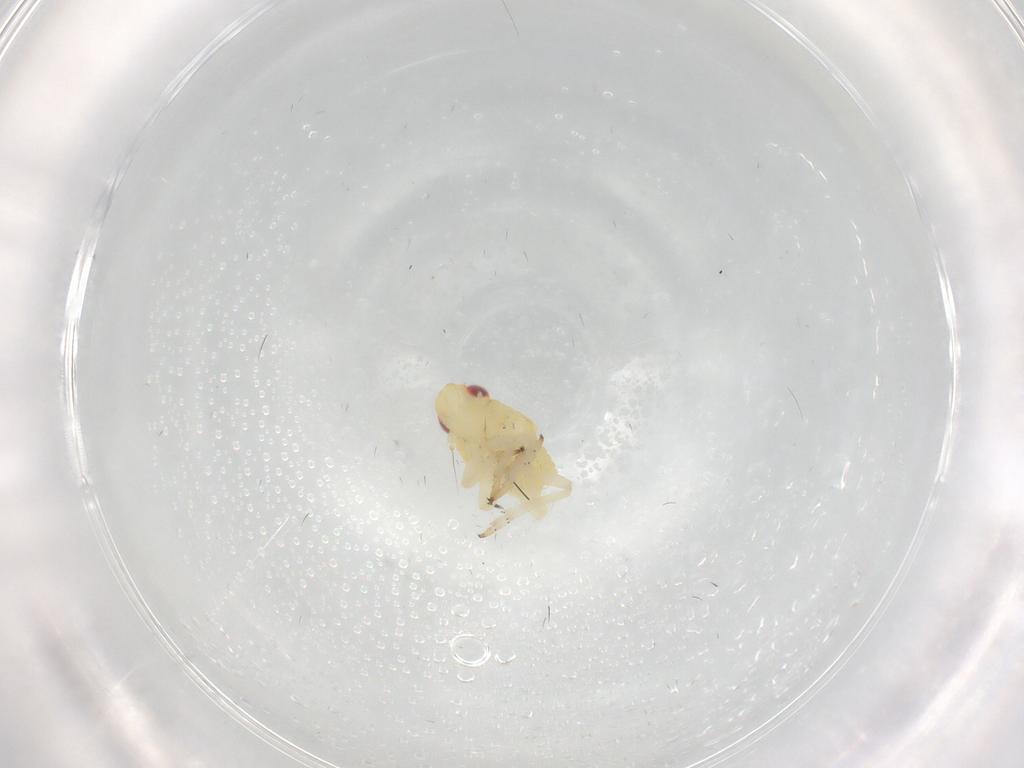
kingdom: Animalia
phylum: Arthropoda
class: Insecta
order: Hemiptera
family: Caliscelidae
